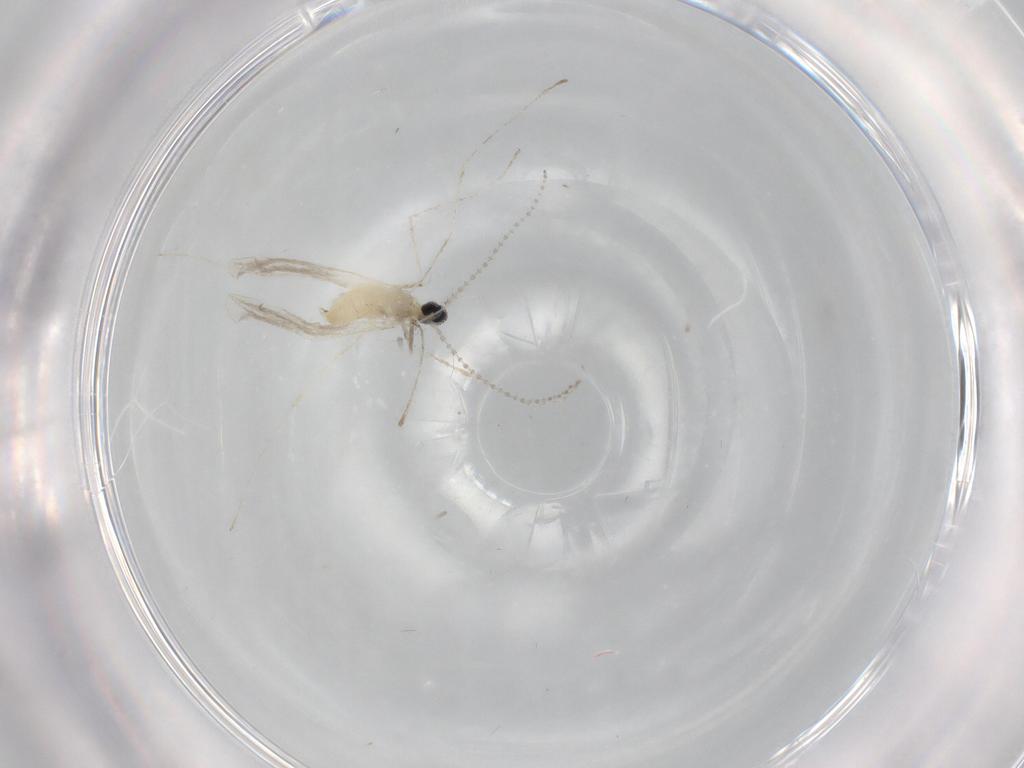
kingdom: Animalia
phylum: Arthropoda
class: Insecta
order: Diptera
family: Cecidomyiidae
